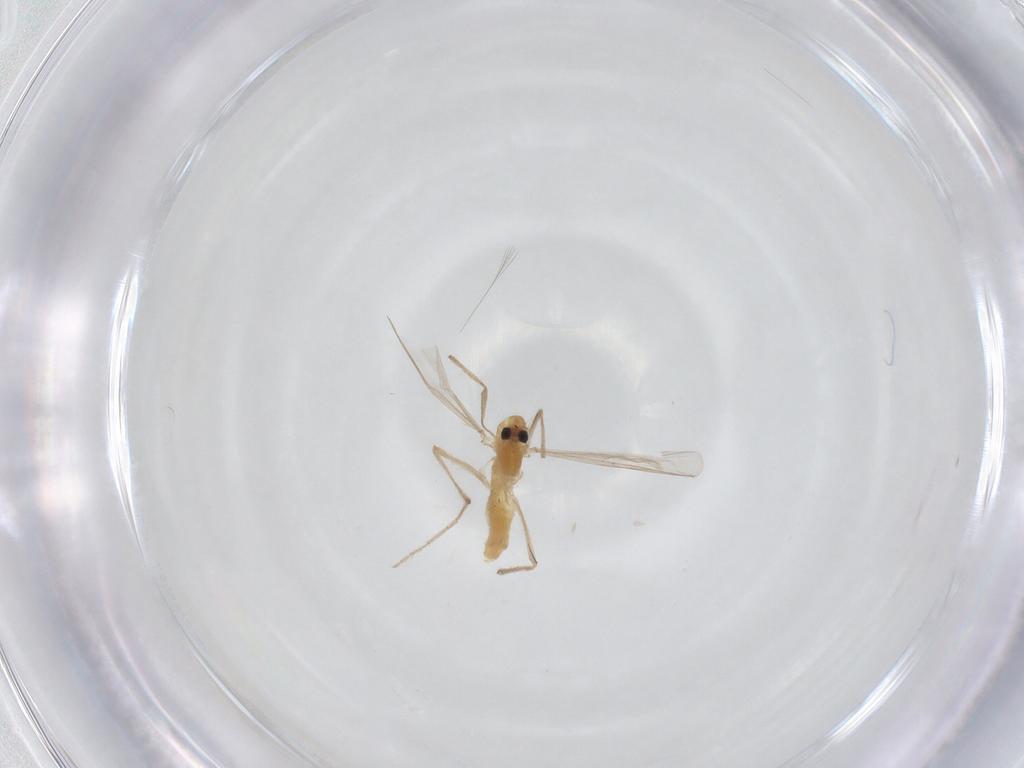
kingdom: Animalia
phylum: Arthropoda
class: Insecta
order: Diptera
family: Chironomidae
